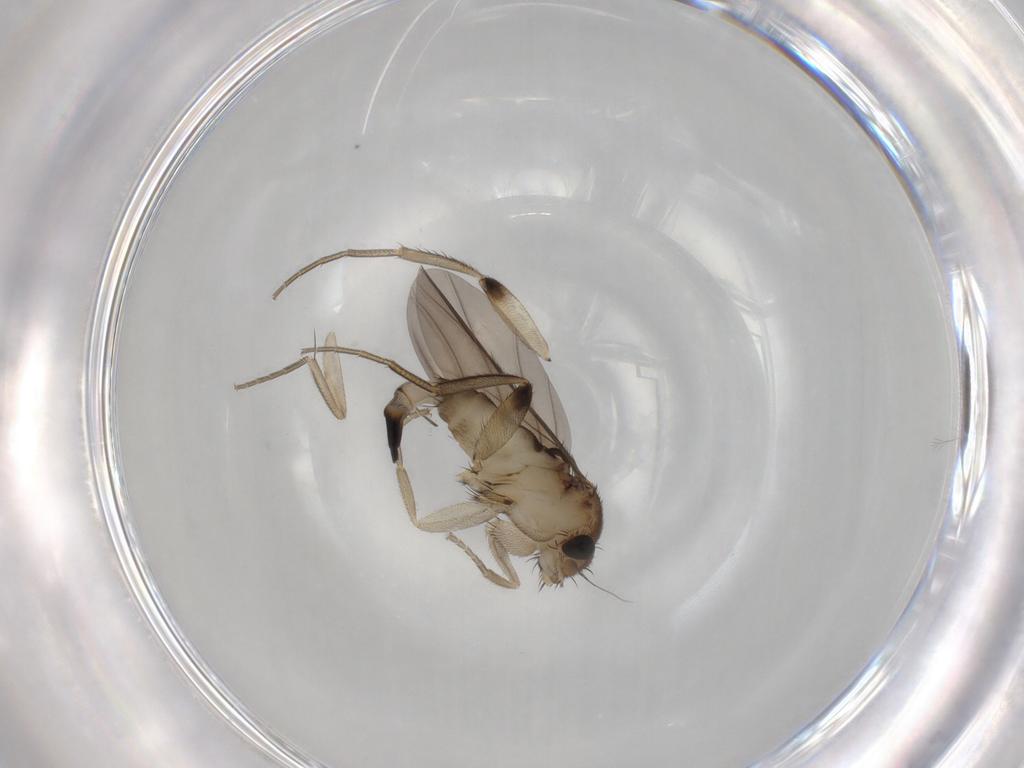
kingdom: Animalia
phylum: Arthropoda
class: Insecta
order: Diptera
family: Phoridae
